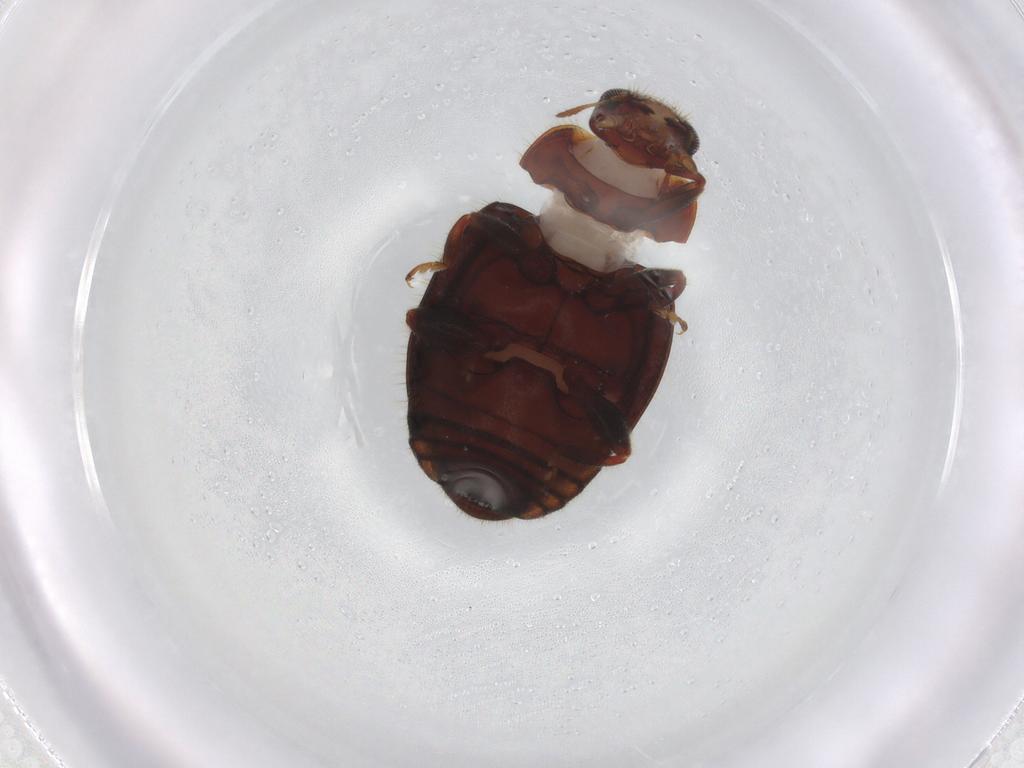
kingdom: Animalia
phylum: Arthropoda
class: Insecta
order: Coleoptera
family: Coccinellidae
